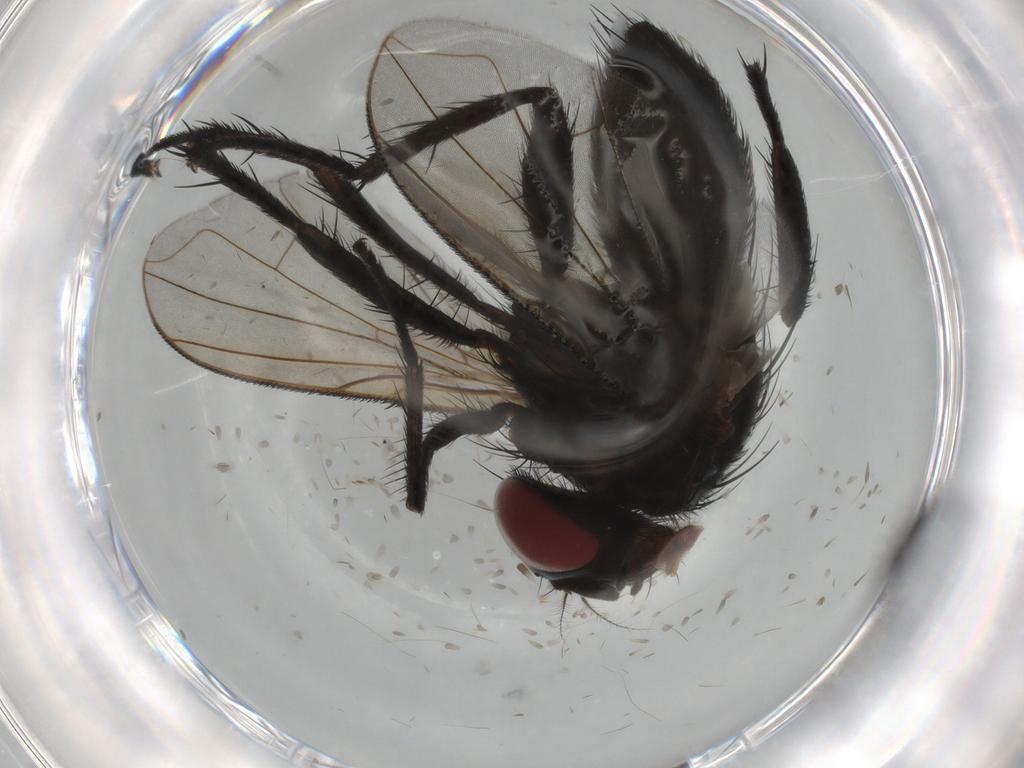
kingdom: Animalia
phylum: Arthropoda
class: Insecta
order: Diptera
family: Tachinidae
